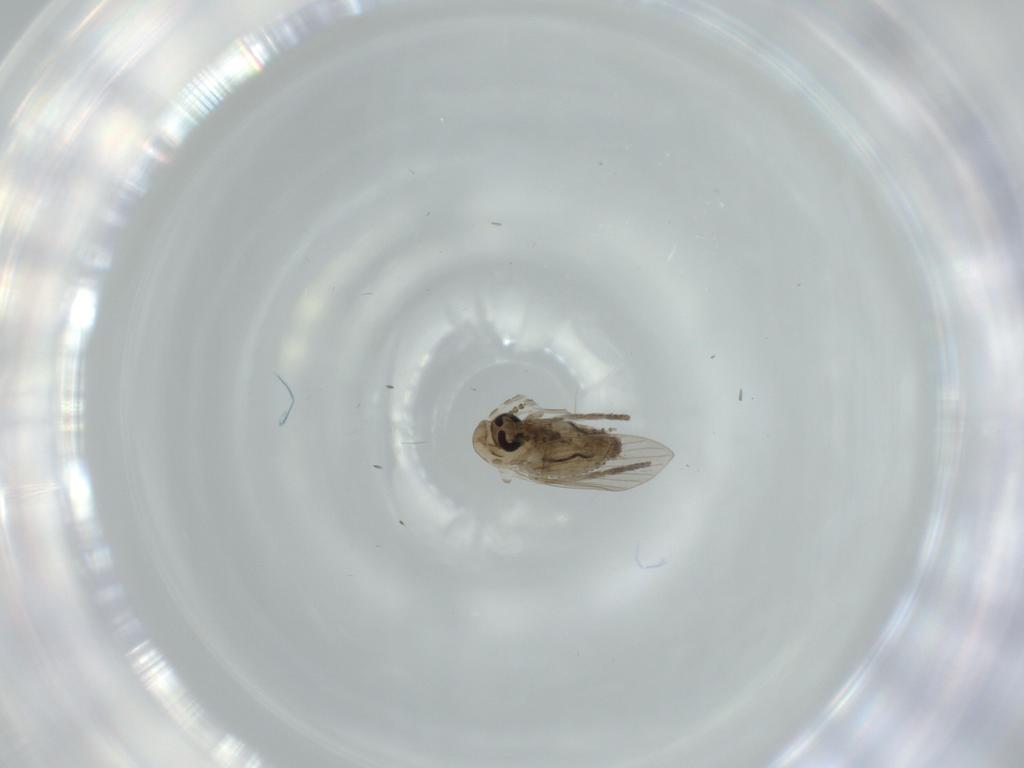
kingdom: Animalia
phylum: Arthropoda
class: Insecta
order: Diptera
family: Psychodidae
